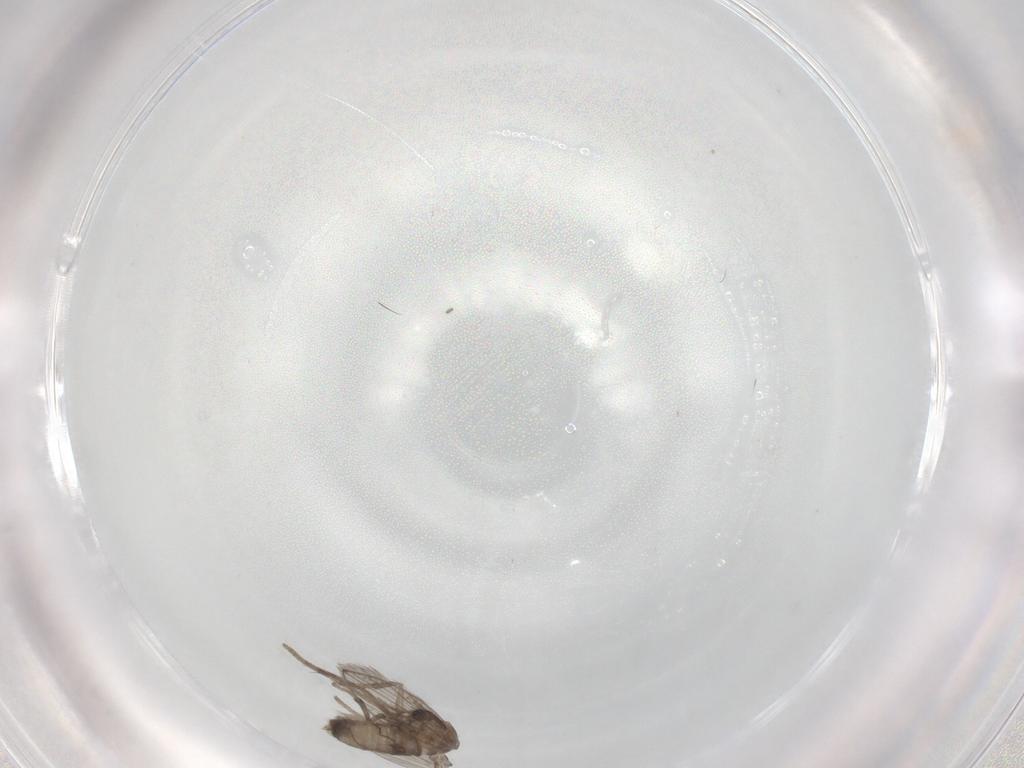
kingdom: Animalia
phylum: Arthropoda
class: Insecta
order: Diptera
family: Psychodidae
